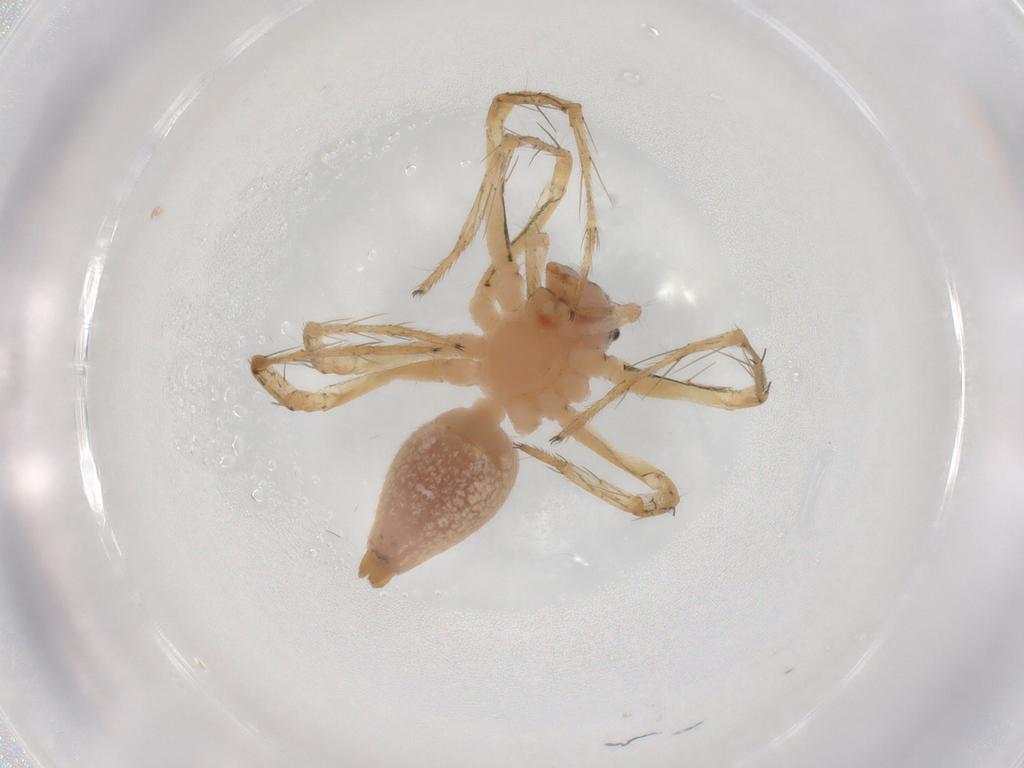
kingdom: Animalia
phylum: Arthropoda
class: Arachnida
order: Araneae
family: Oxyopidae
